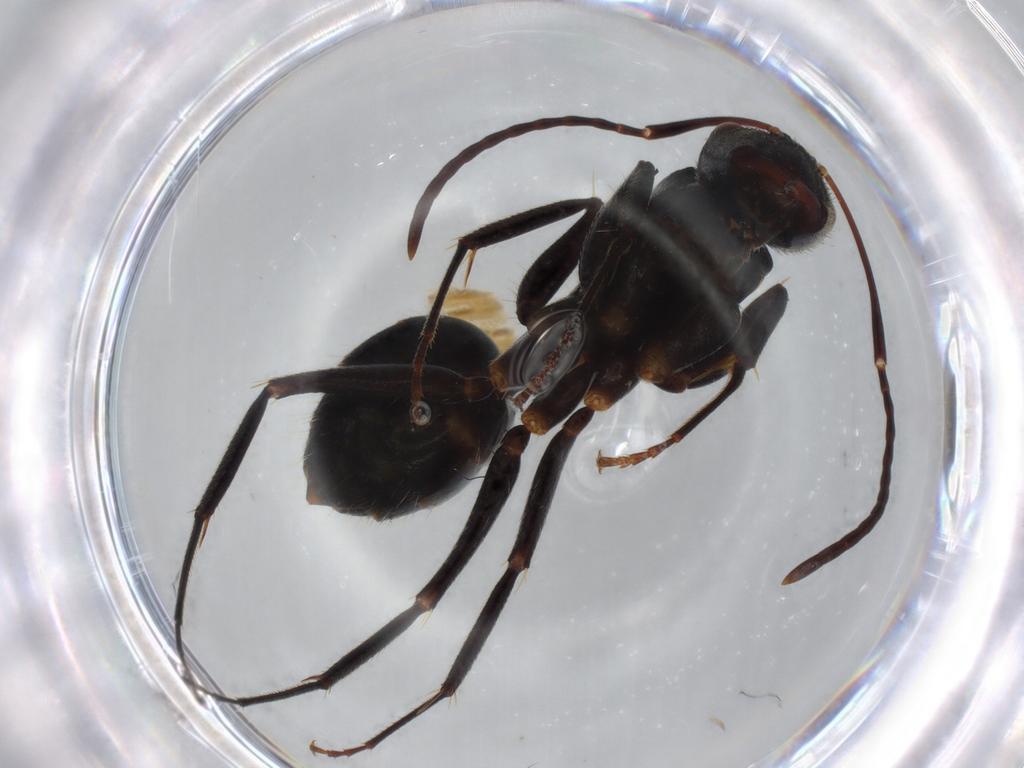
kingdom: Animalia
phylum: Arthropoda
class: Insecta
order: Hymenoptera
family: Formicidae
